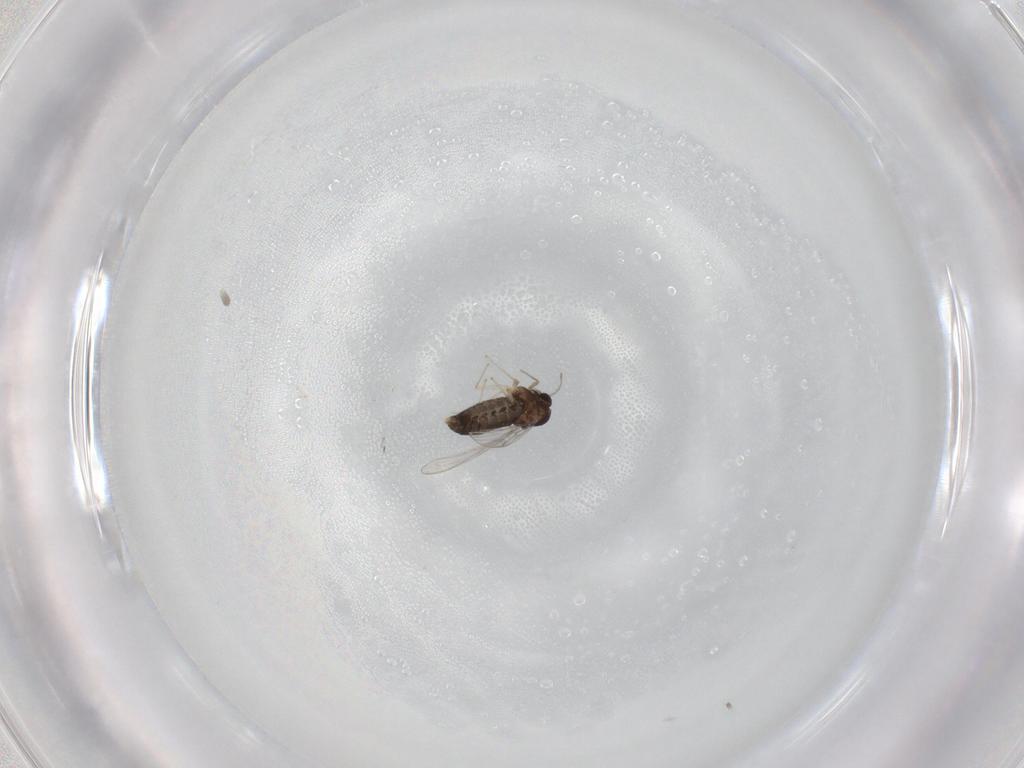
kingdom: Animalia
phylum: Arthropoda
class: Insecta
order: Diptera
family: Chironomidae
